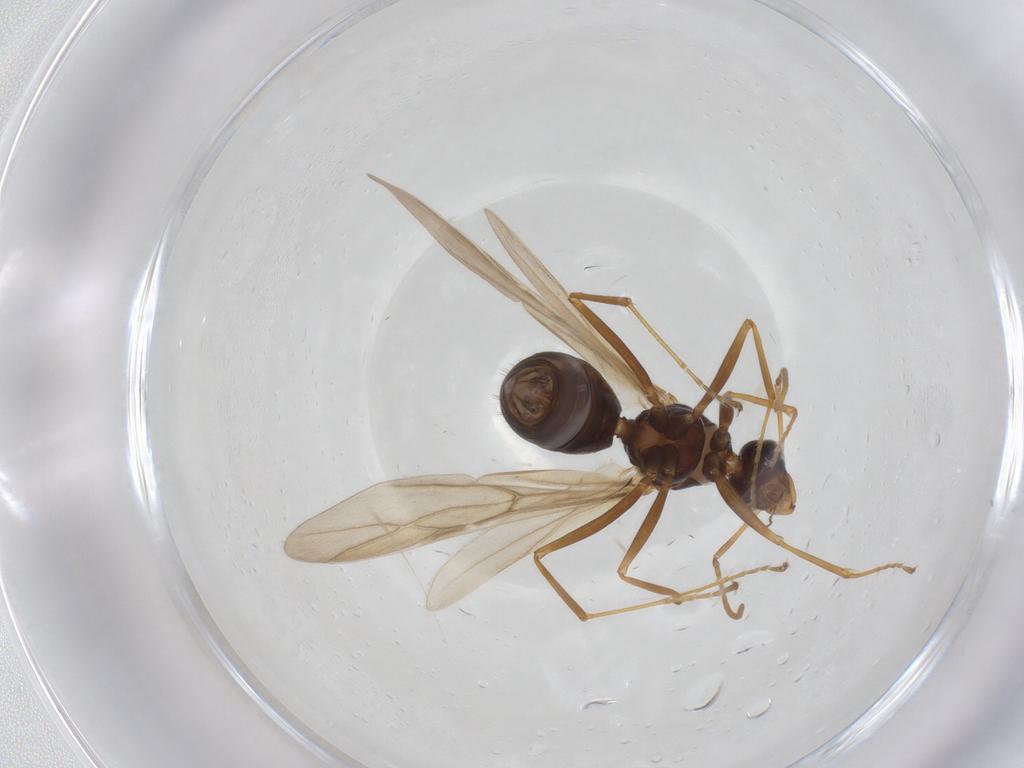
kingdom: Animalia
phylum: Arthropoda
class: Insecta
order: Hymenoptera
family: Formicidae
